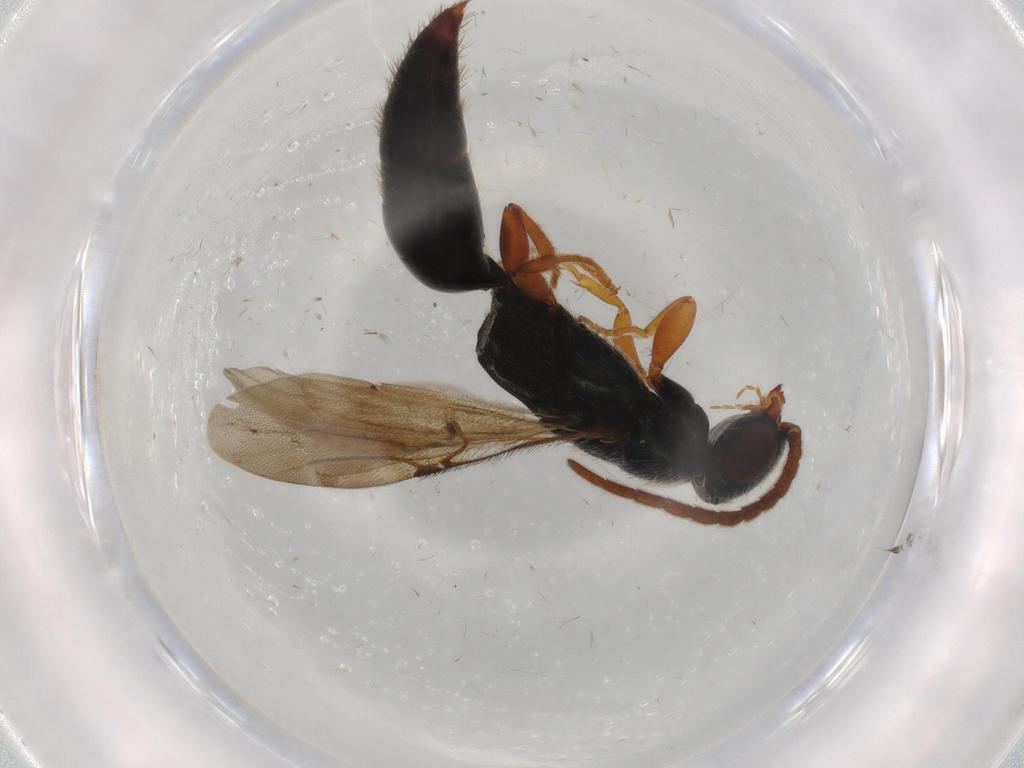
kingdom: Animalia
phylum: Arthropoda
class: Insecta
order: Hymenoptera
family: Bethylidae
